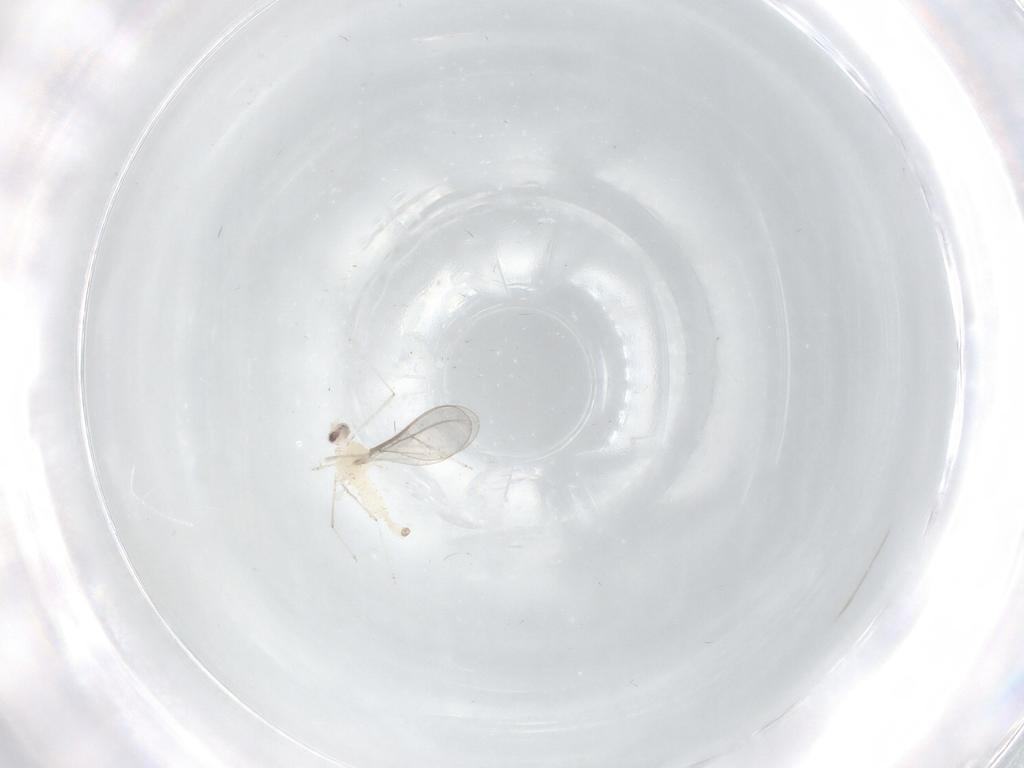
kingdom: Animalia
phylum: Arthropoda
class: Insecta
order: Diptera
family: Cecidomyiidae
